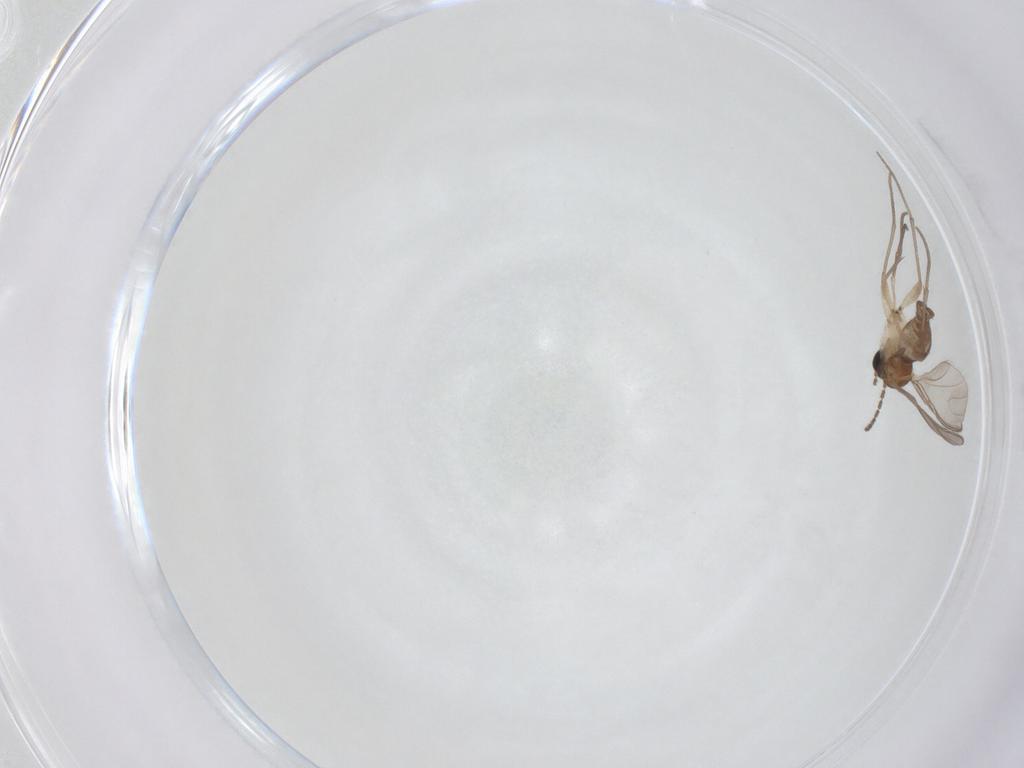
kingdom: Animalia
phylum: Arthropoda
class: Insecta
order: Diptera
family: Sciaridae
